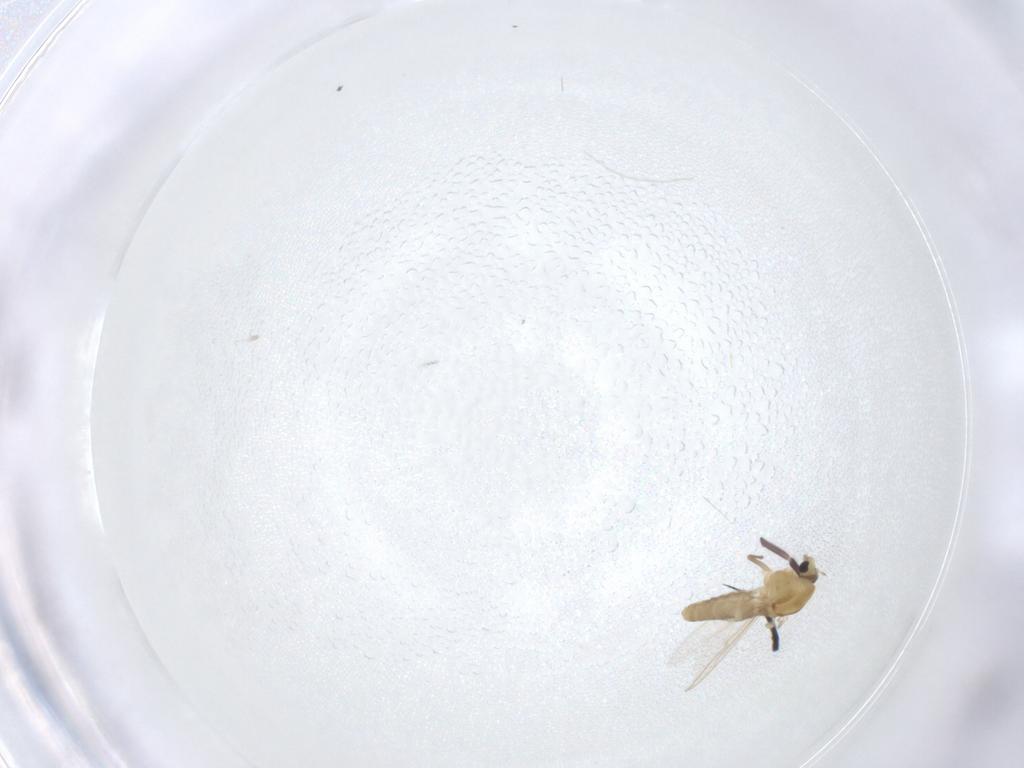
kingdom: Animalia
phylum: Arthropoda
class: Insecta
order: Diptera
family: Chironomidae
